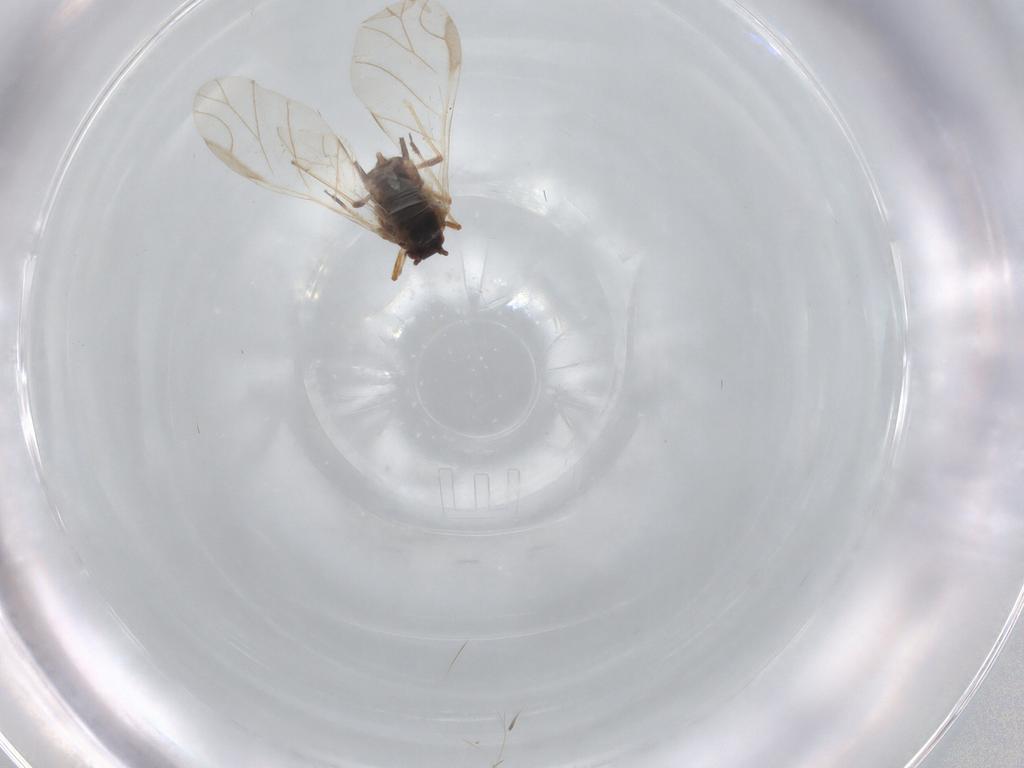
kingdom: Animalia
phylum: Arthropoda
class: Insecta
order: Hemiptera
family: Aphididae
